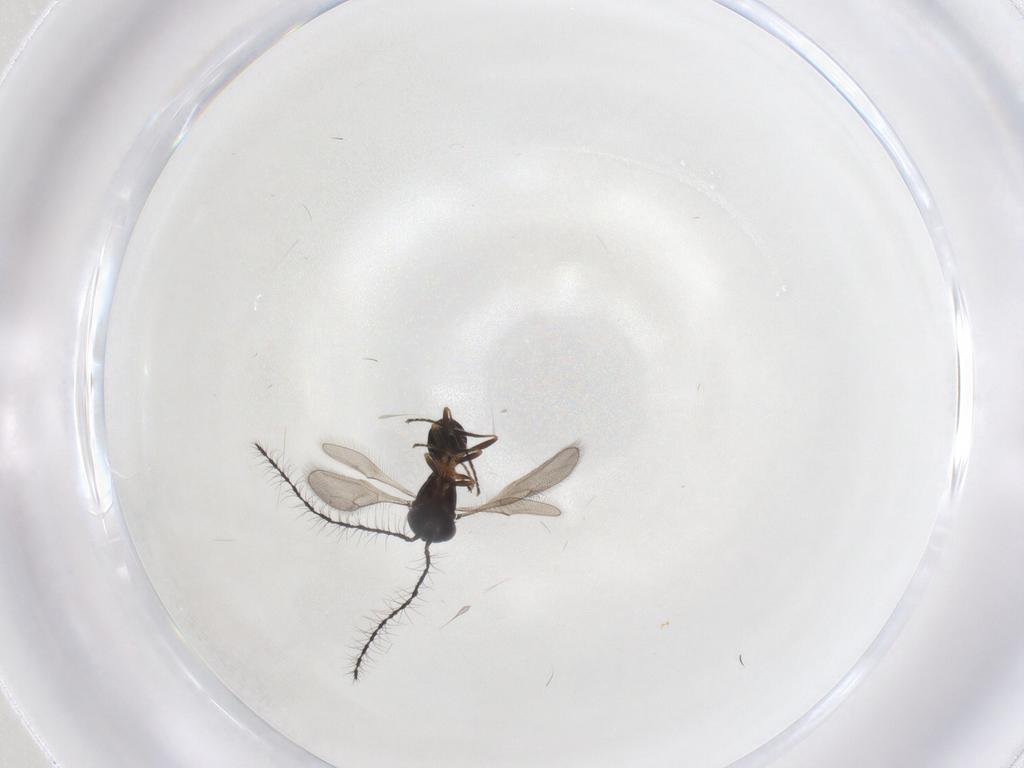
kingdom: Animalia
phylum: Arthropoda
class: Insecta
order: Hymenoptera
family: Scelionidae
